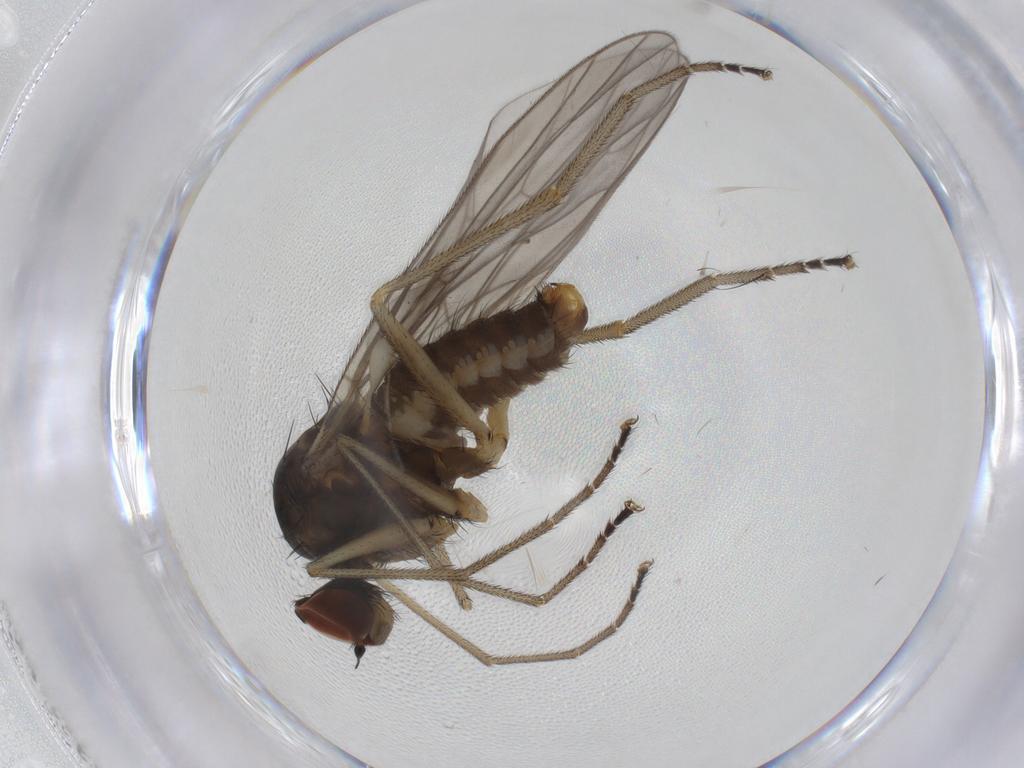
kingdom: Animalia
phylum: Arthropoda
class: Insecta
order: Diptera
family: Brachystomatidae
